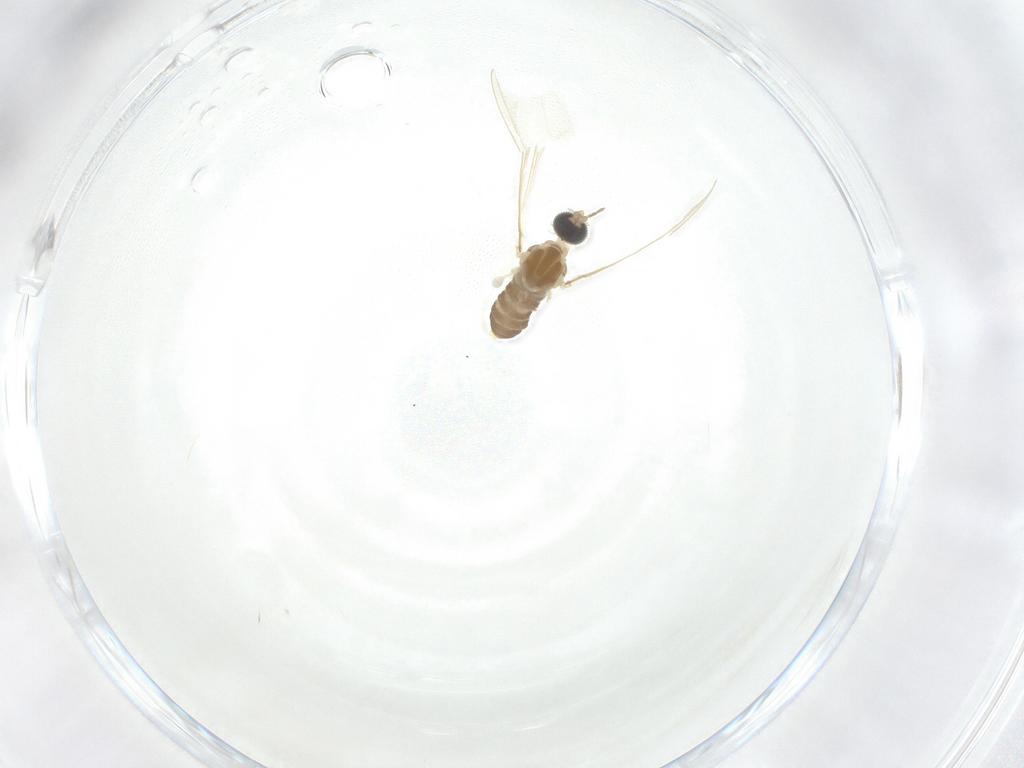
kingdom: Animalia
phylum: Arthropoda
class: Insecta
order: Diptera
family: Cecidomyiidae
